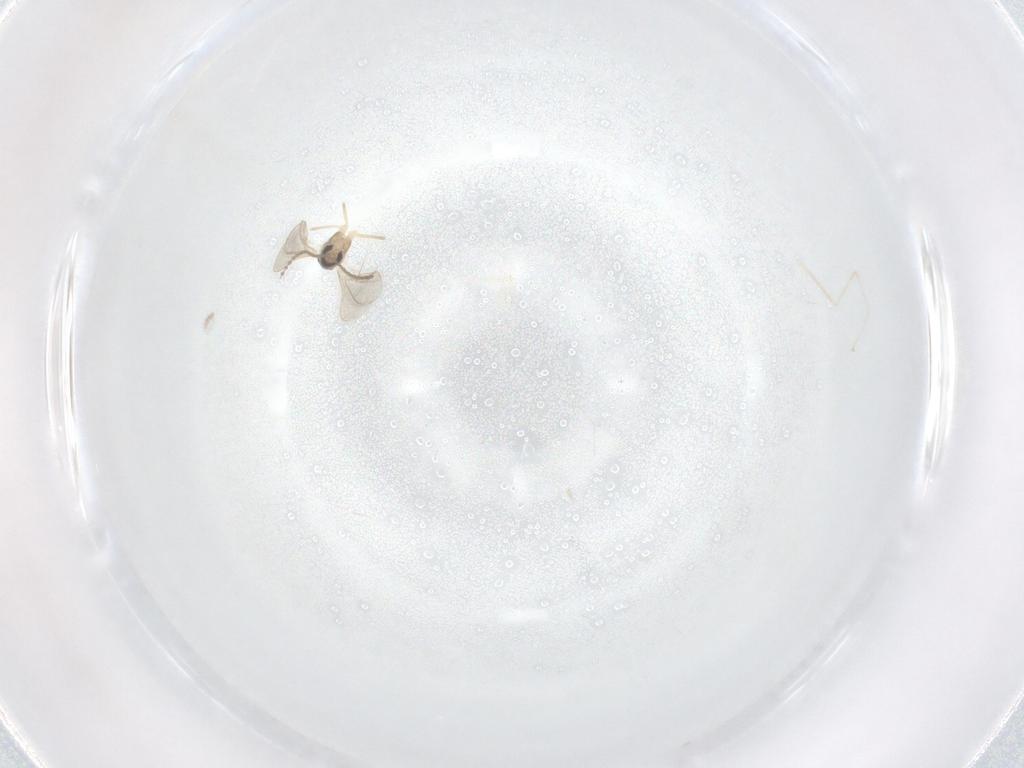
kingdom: Animalia
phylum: Arthropoda
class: Insecta
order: Diptera
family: Cecidomyiidae
